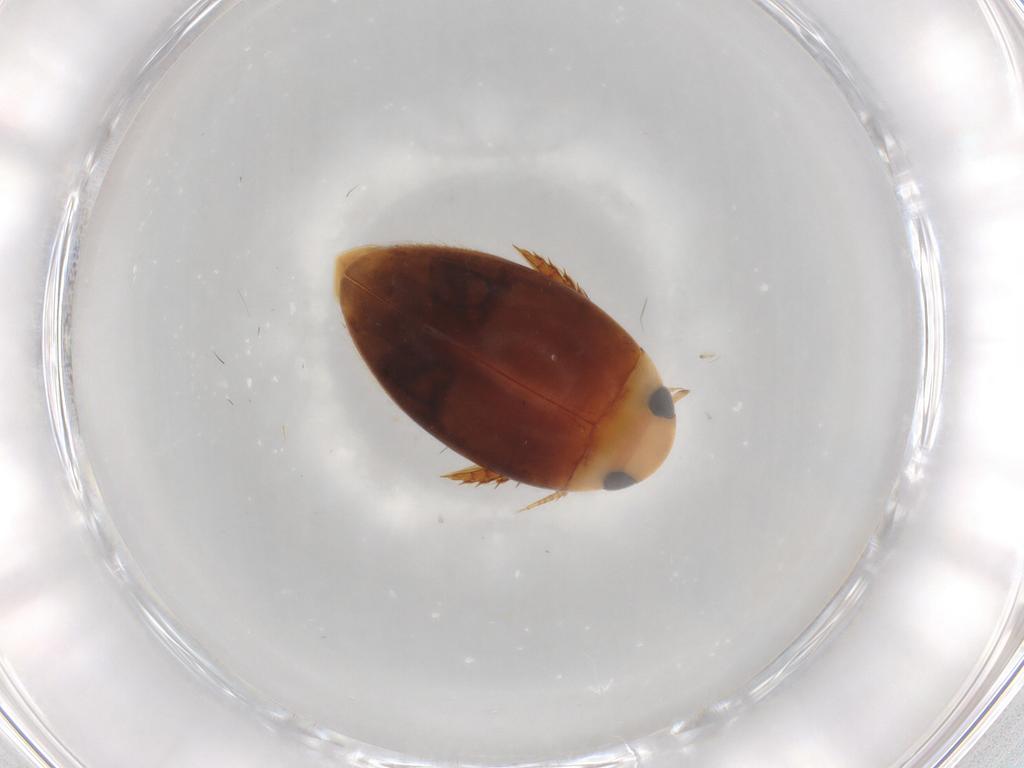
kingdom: Animalia
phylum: Arthropoda
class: Insecta
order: Coleoptera
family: Dytiscidae
